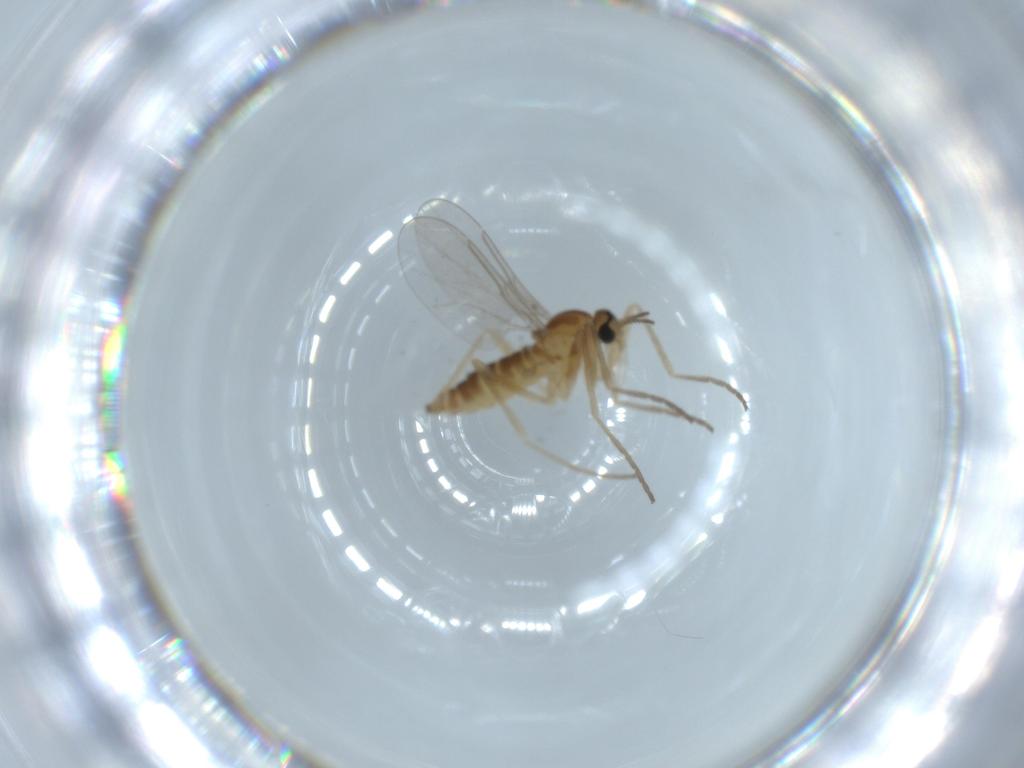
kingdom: Animalia
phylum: Arthropoda
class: Insecta
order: Diptera
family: Cecidomyiidae
